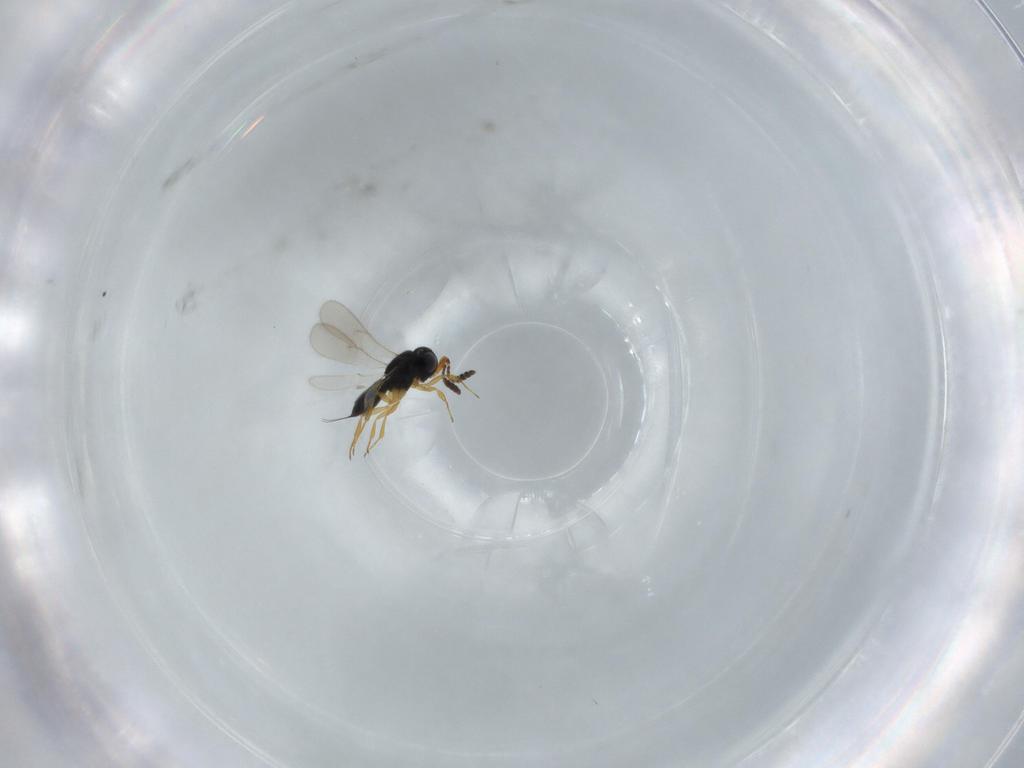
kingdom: Animalia
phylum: Arthropoda
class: Insecta
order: Hymenoptera
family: Scelionidae
